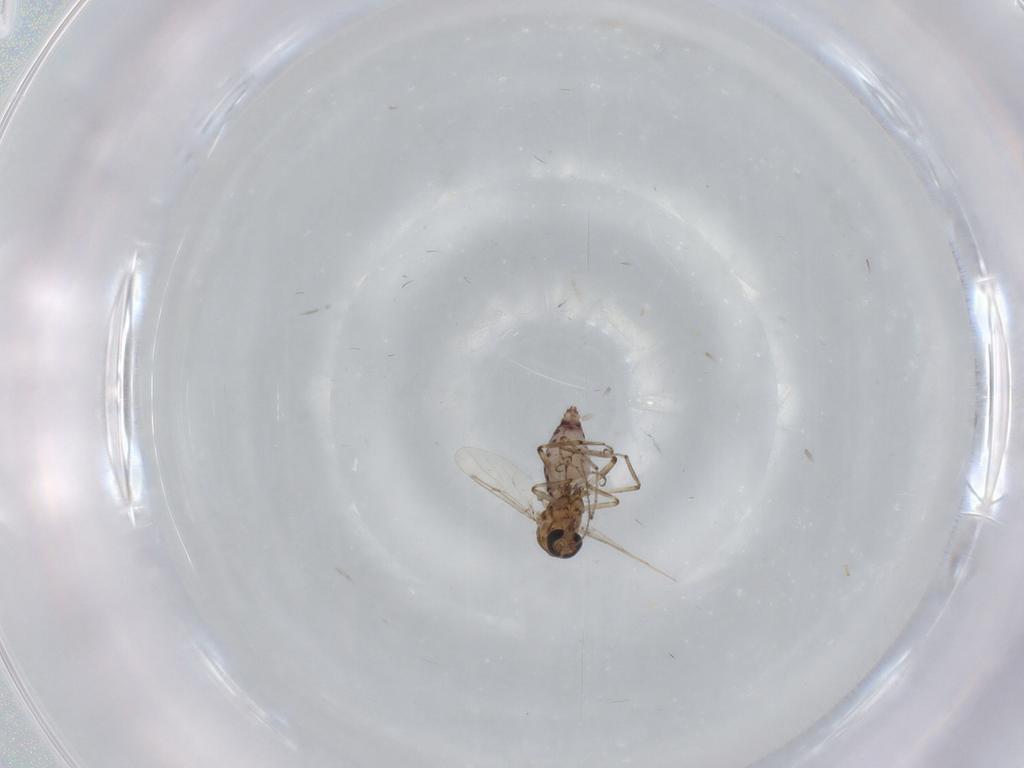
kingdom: Animalia
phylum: Arthropoda
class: Insecta
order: Diptera
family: Ceratopogonidae
